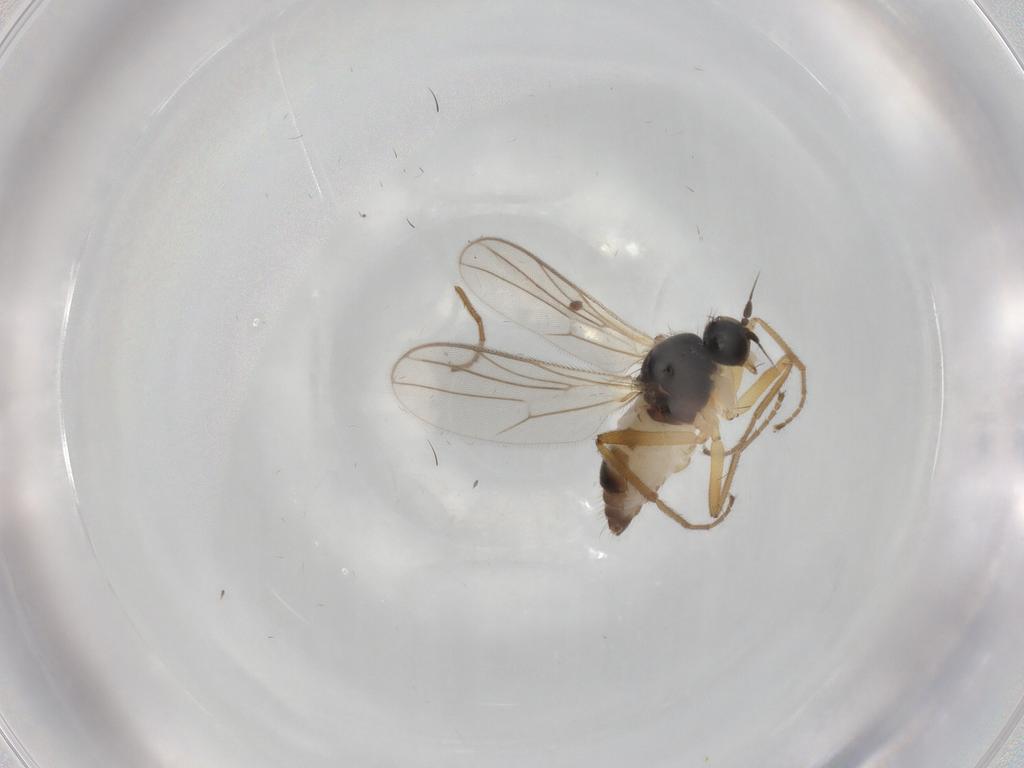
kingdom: Animalia
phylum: Arthropoda
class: Insecta
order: Diptera
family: Hybotidae
